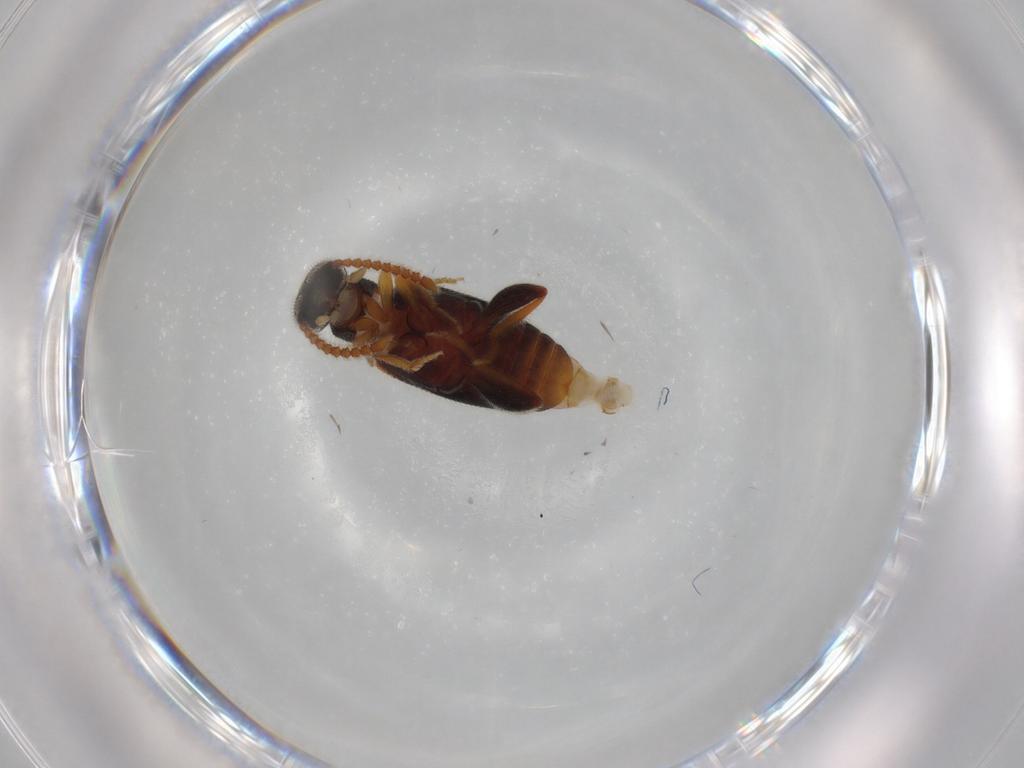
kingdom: Animalia
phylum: Arthropoda
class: Insecta
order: Coleoptera
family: Aderidae
